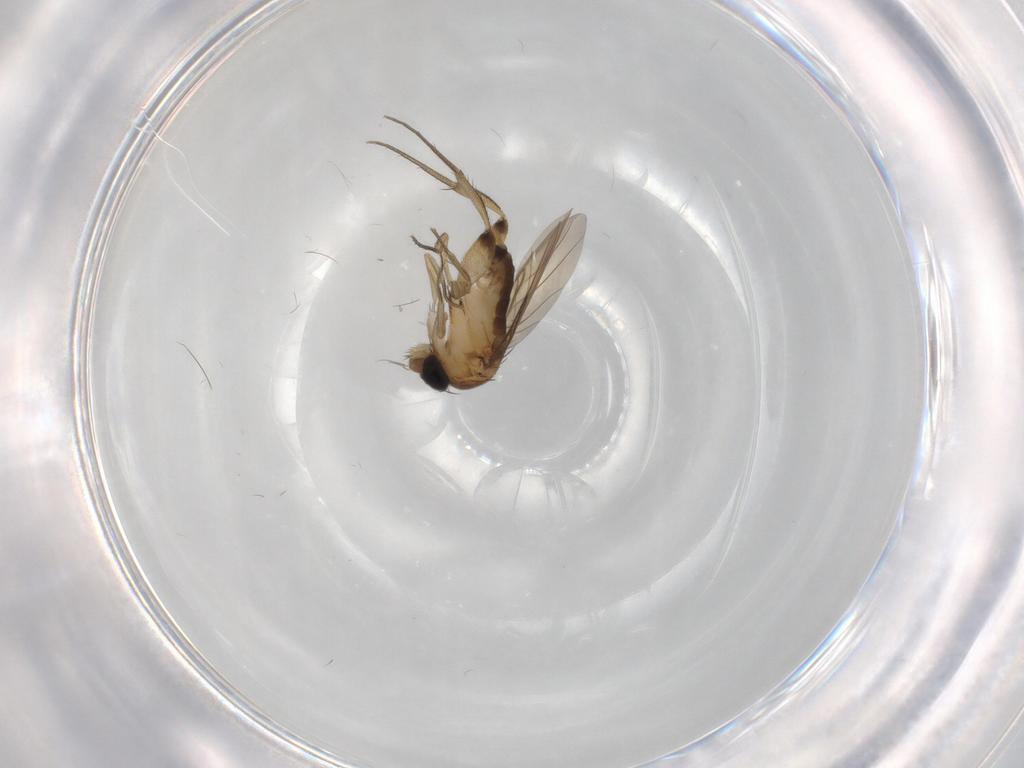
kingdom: Animalia
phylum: Arthropoda
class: Insecta
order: Diptera
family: Phoridae
